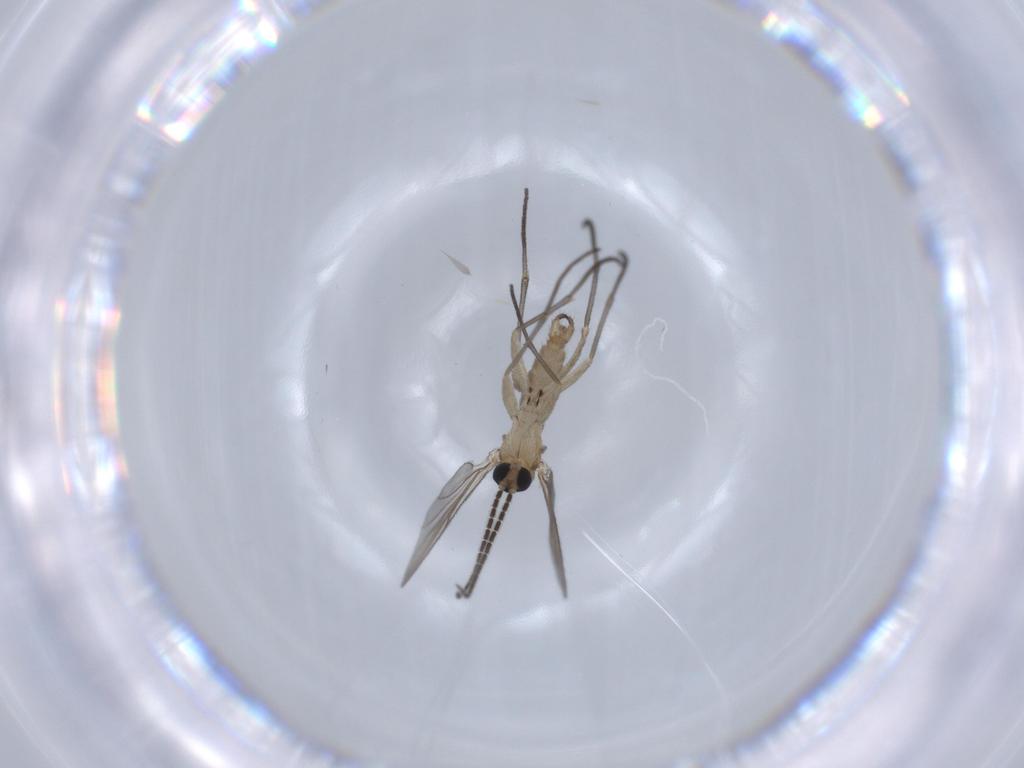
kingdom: Animalia
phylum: Arthropoda
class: Insecta
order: Diptera
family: Sciaridae
